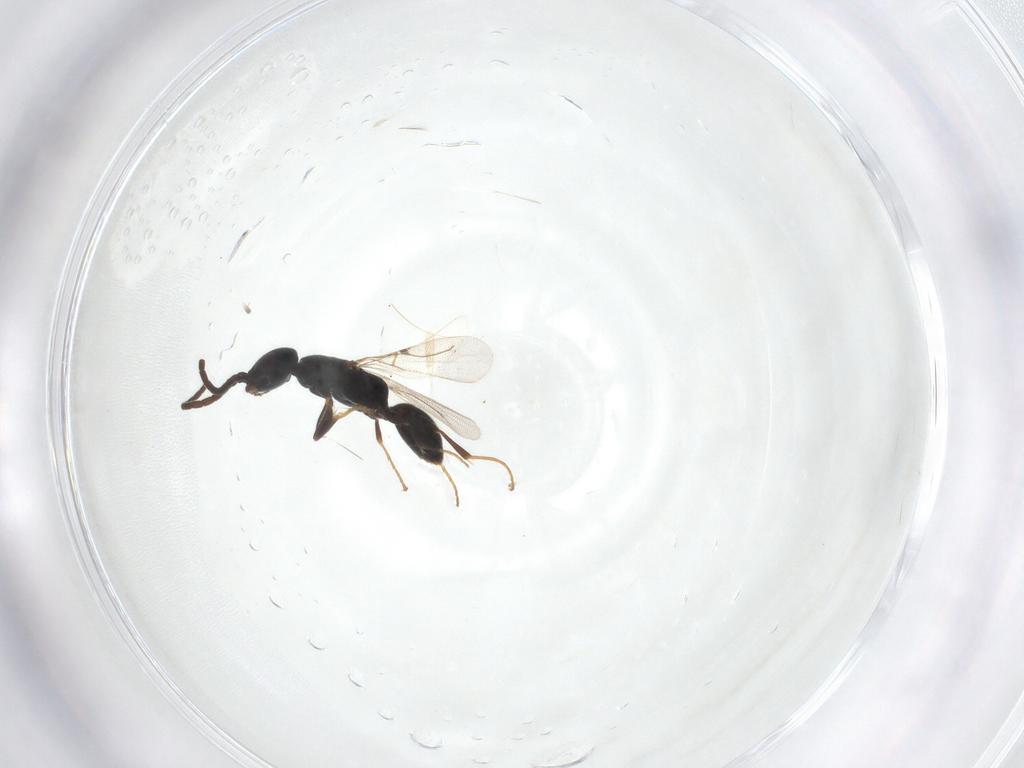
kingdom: Animalia
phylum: Arthropoda
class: Insecta
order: Hymenoptera
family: Bethylidae
